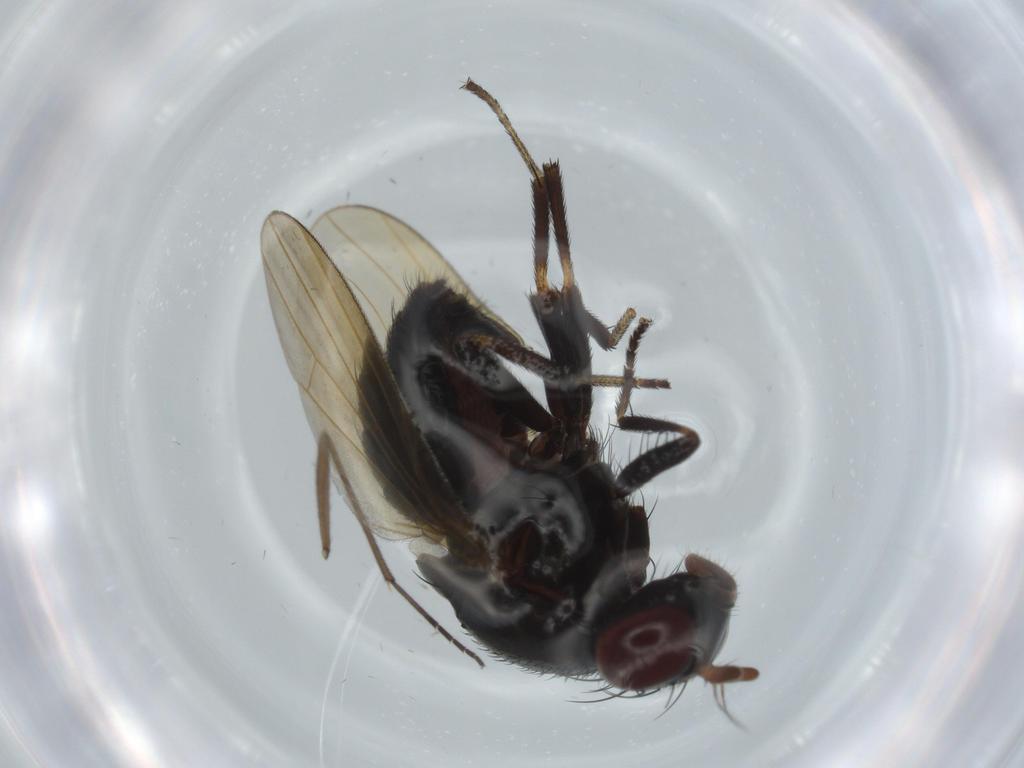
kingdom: Animalia
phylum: Arthropoda
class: Insecta
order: Diptera
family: Lauxaniidae
